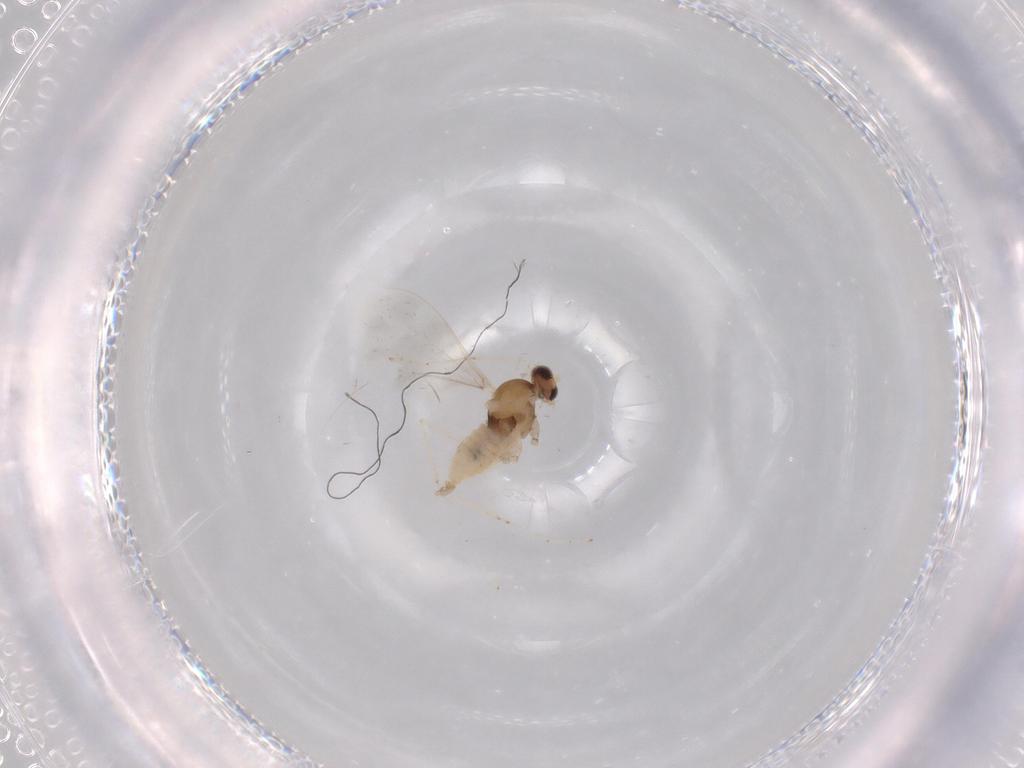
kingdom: Animalia
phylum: Arthropoda
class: Insecta
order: Diptera
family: Cecidomyiidae
